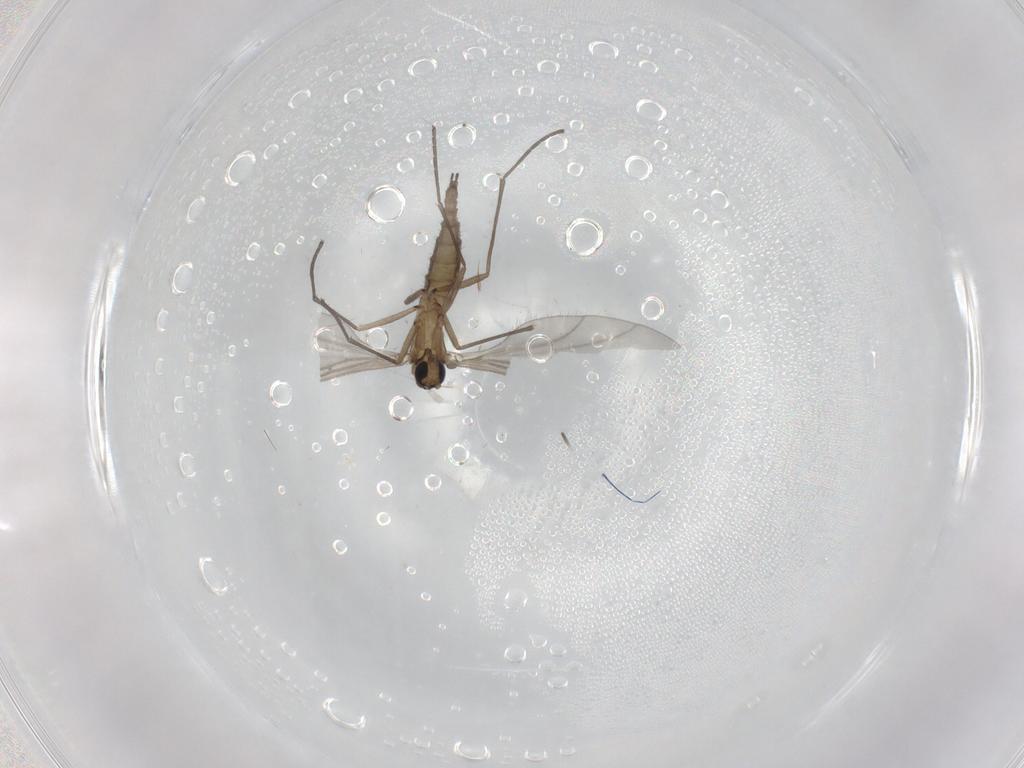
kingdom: Animalia
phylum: Arthropoda
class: Insecta
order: Diptera
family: Sciaridae
